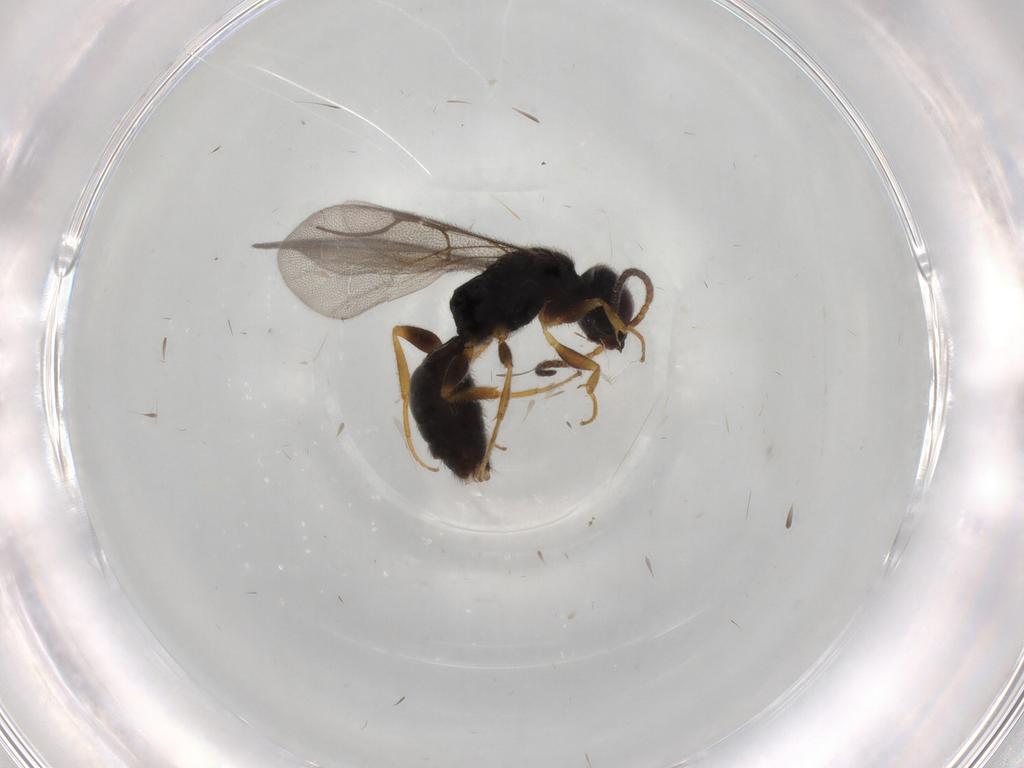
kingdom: Animalia
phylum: Arthropoda
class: Insecta
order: Hymenoptera
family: Bethylidae
